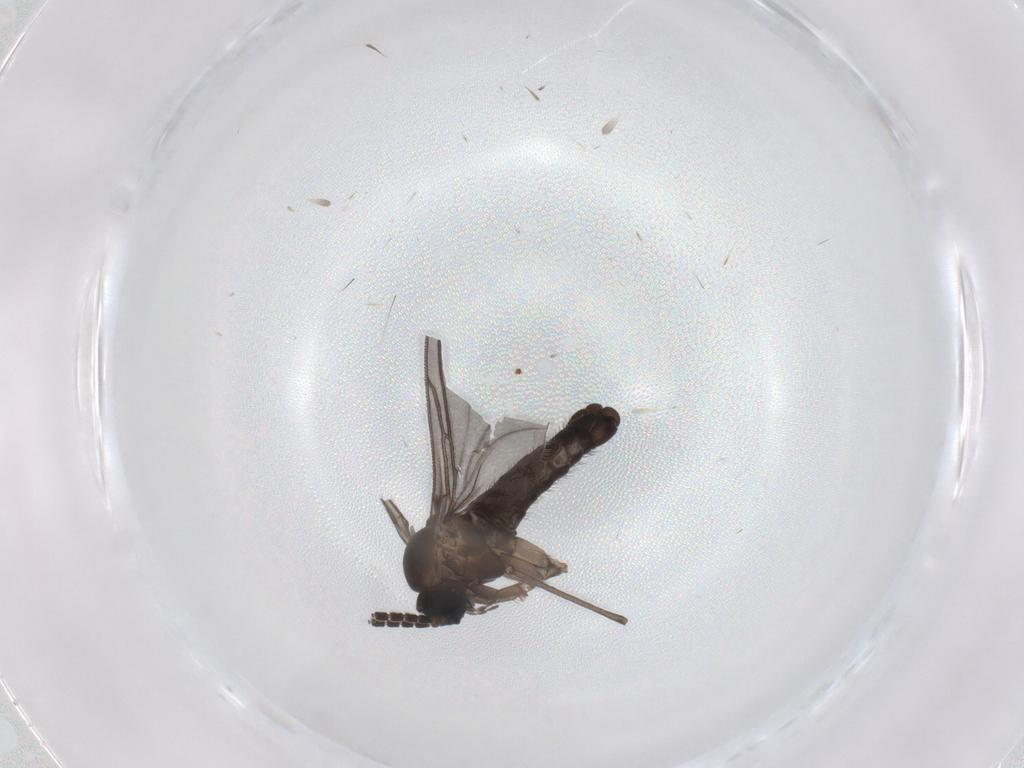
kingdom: Animalia
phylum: Arthropoda
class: Insecta
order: Diptera
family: Sciaridae
